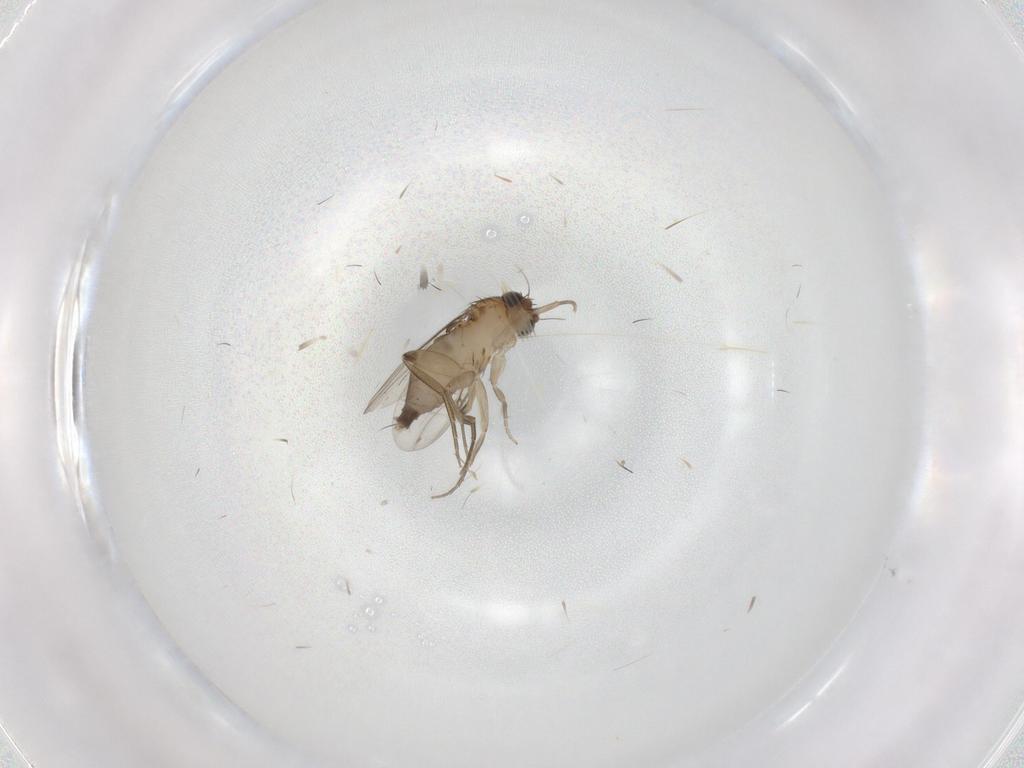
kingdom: Animalia
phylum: Arthropoda
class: Insecta
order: Diptera
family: Phoridae
